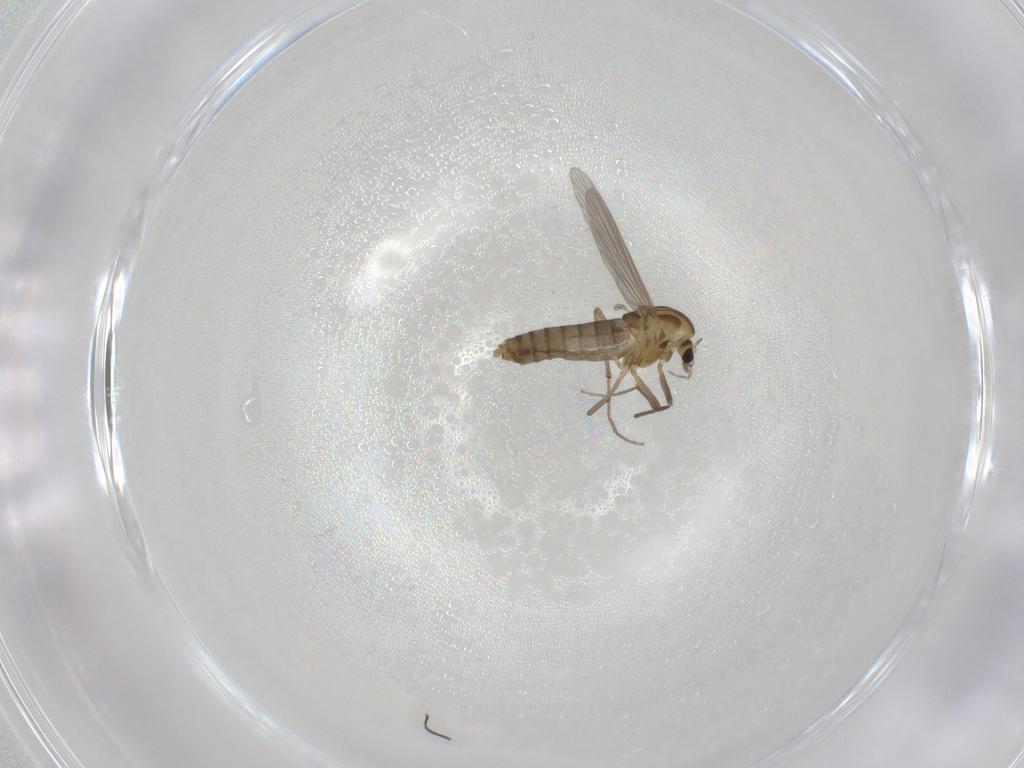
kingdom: Animalia
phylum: Arthropoda
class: Insecta
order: Diptera
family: Chironomidae
